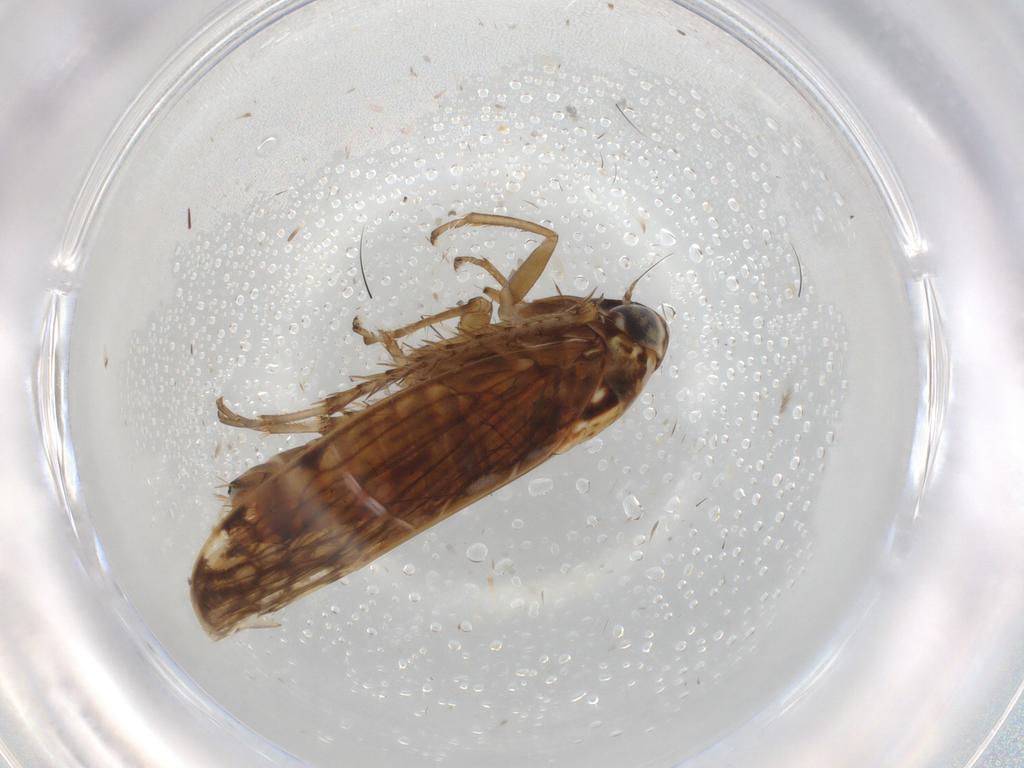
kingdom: Animalia
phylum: Arthropoda
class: Insecta
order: Hemiptera
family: Cicadellidae
